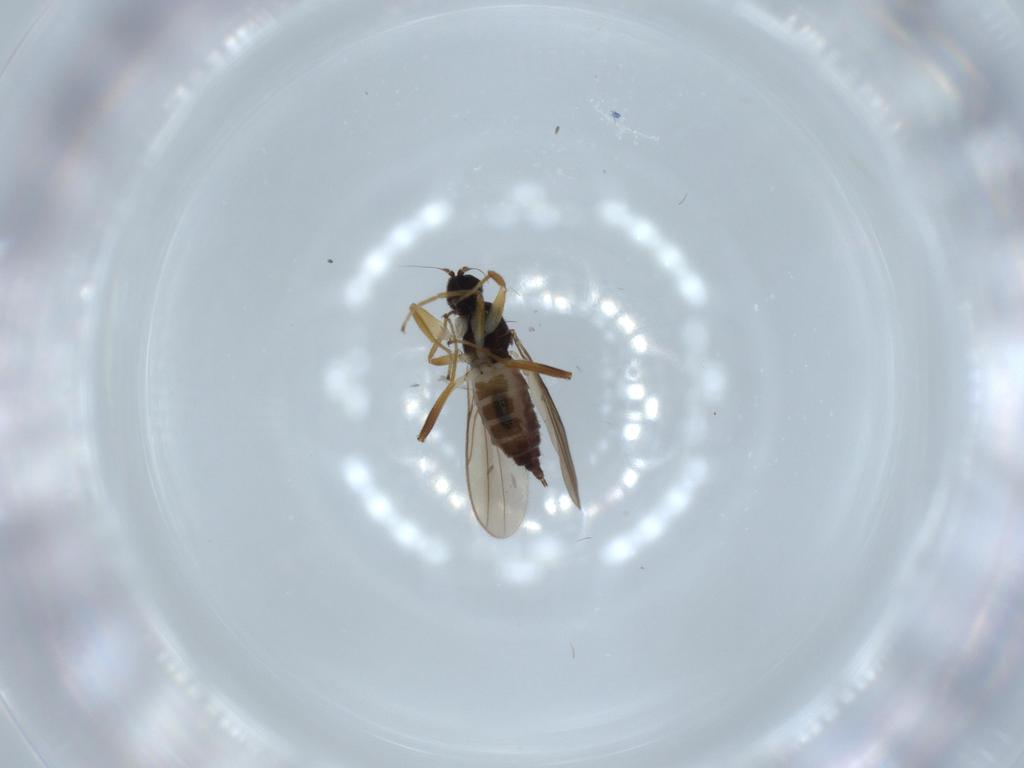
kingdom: Animalia
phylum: Arthropoda
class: Insecta
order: Diptera
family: Hybotidae
